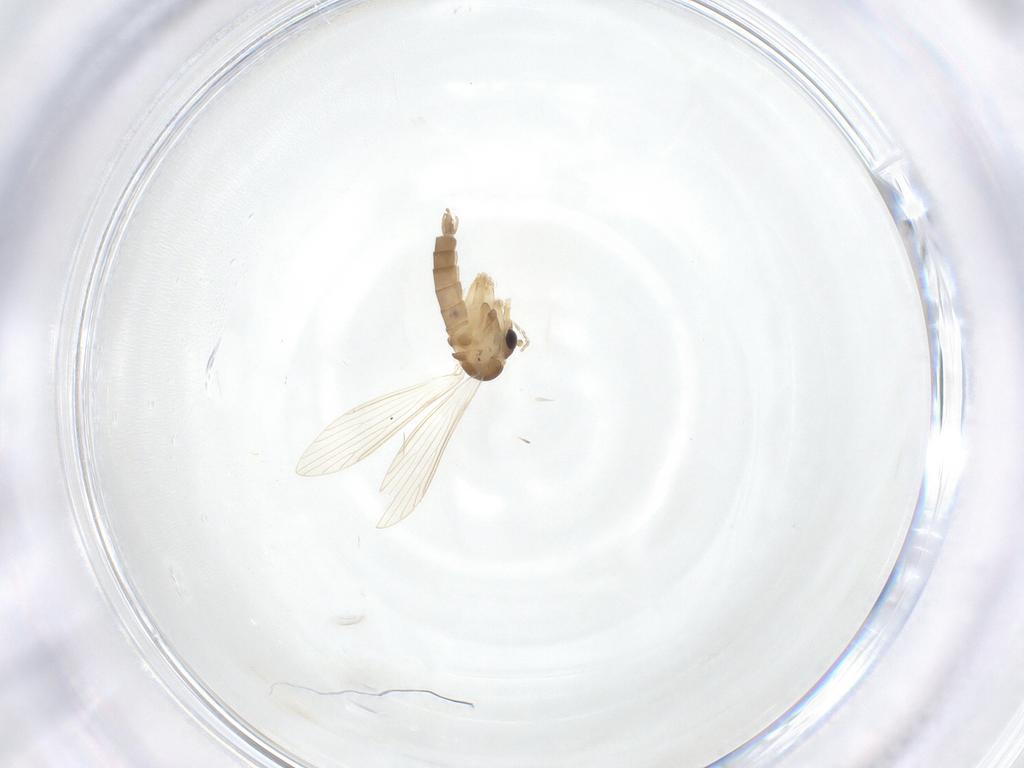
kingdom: Animalia
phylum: Arthropoda
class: Insecta
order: Diptera
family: Psychodidae
